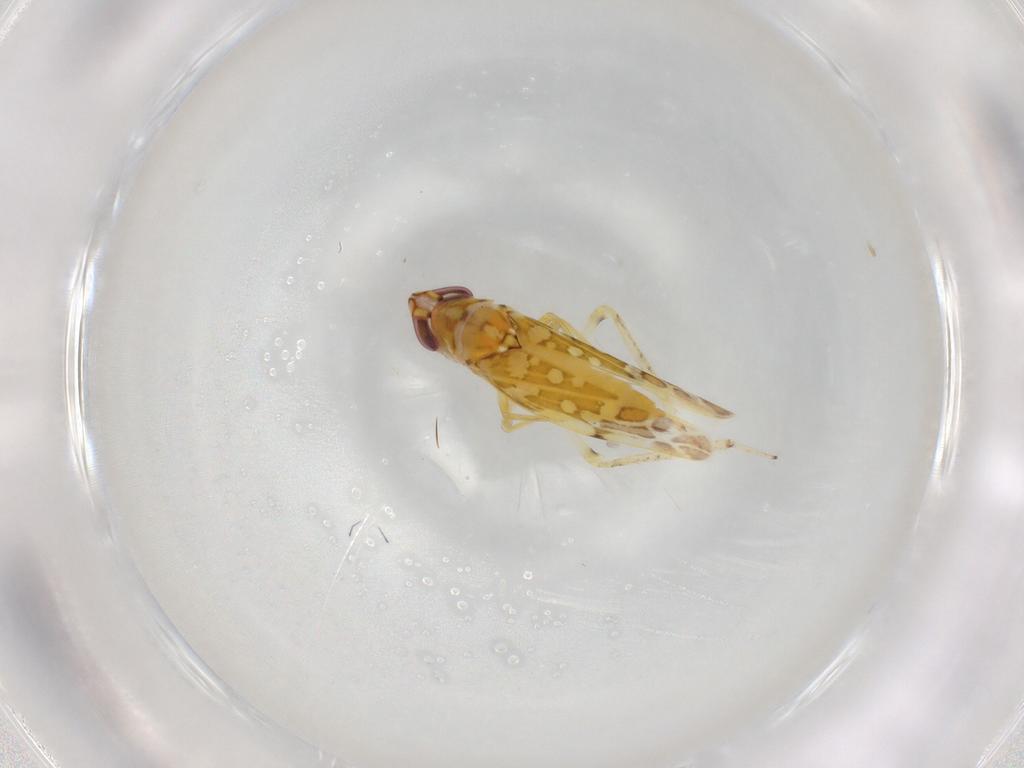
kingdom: Animalia
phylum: Arthropoda
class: Insecta
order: Hemiptera
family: Cicadellidae
